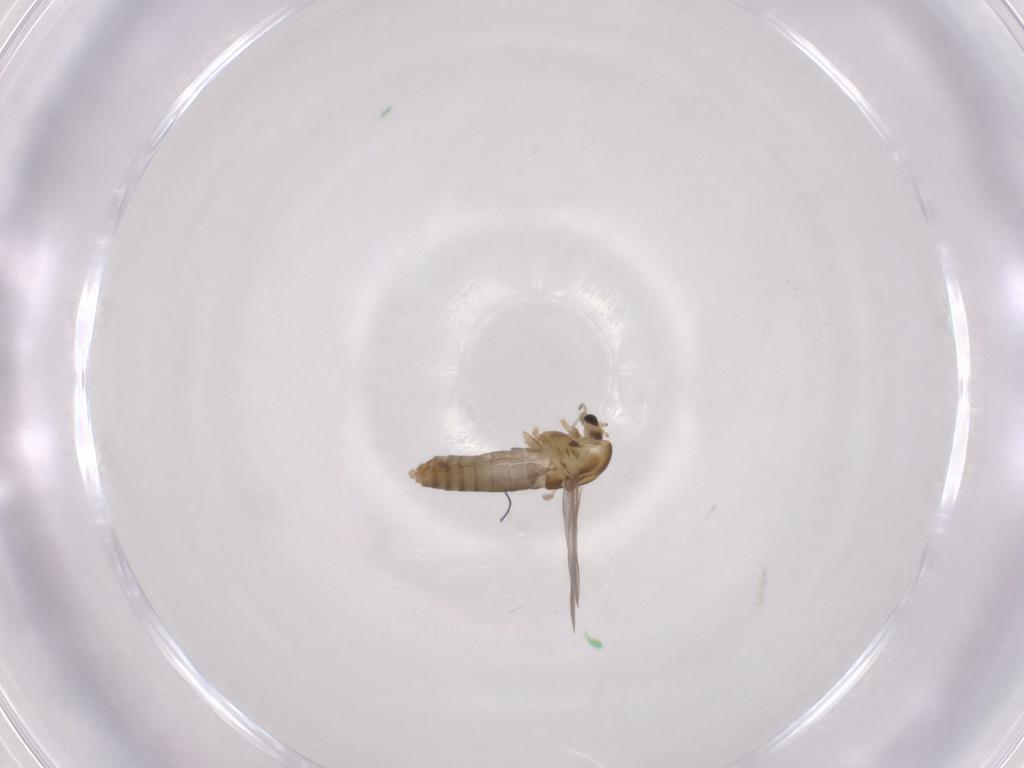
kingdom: Animalia
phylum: Arthropoda
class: Insecta
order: Diptera
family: Chironomidae
